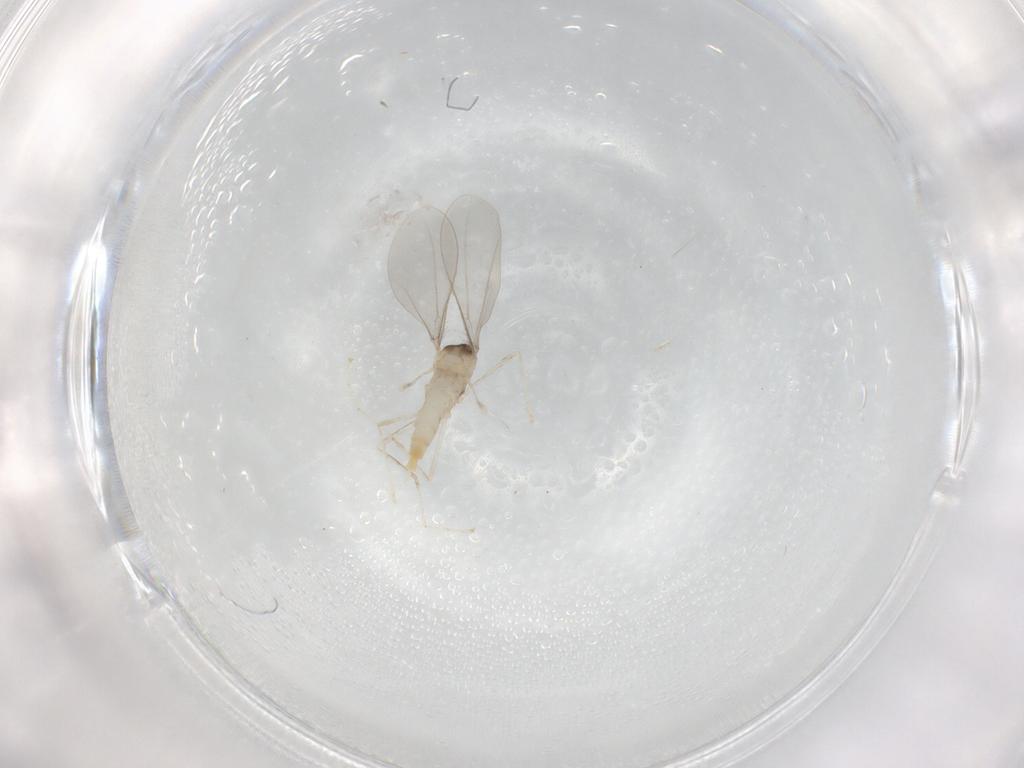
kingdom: Animalia
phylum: Arthropoda
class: Insecta
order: Diptera
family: Cecidomyiidae
